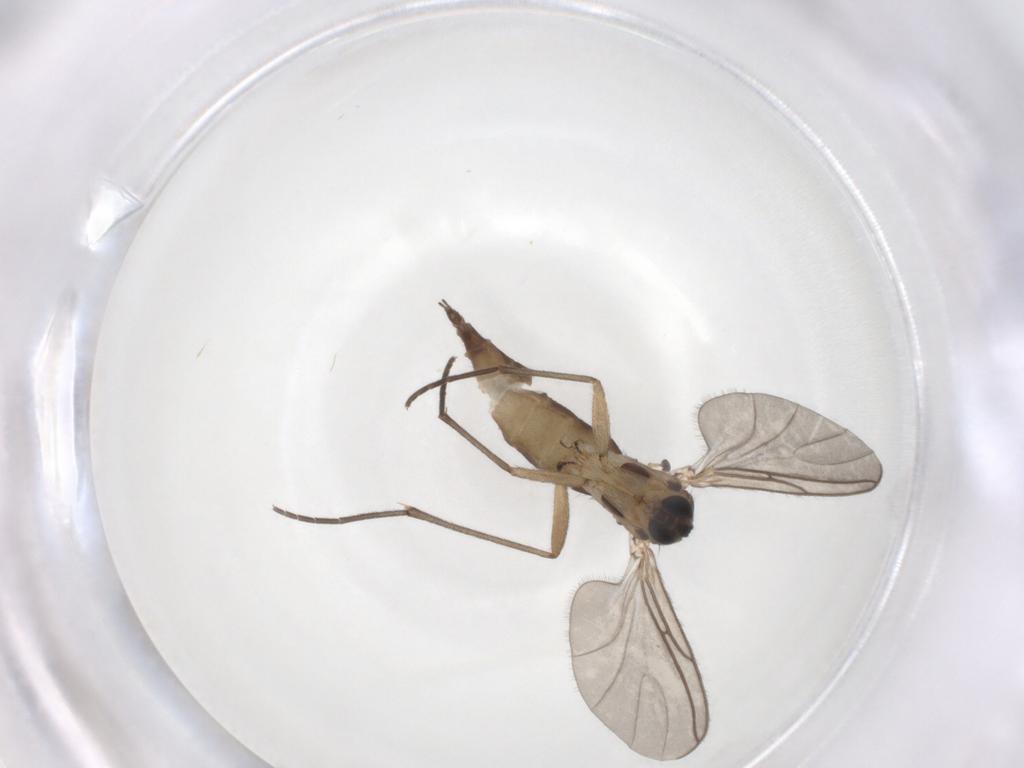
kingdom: Animalia
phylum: Arthropoda
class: Insecta
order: Diptera
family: Sciaridae
